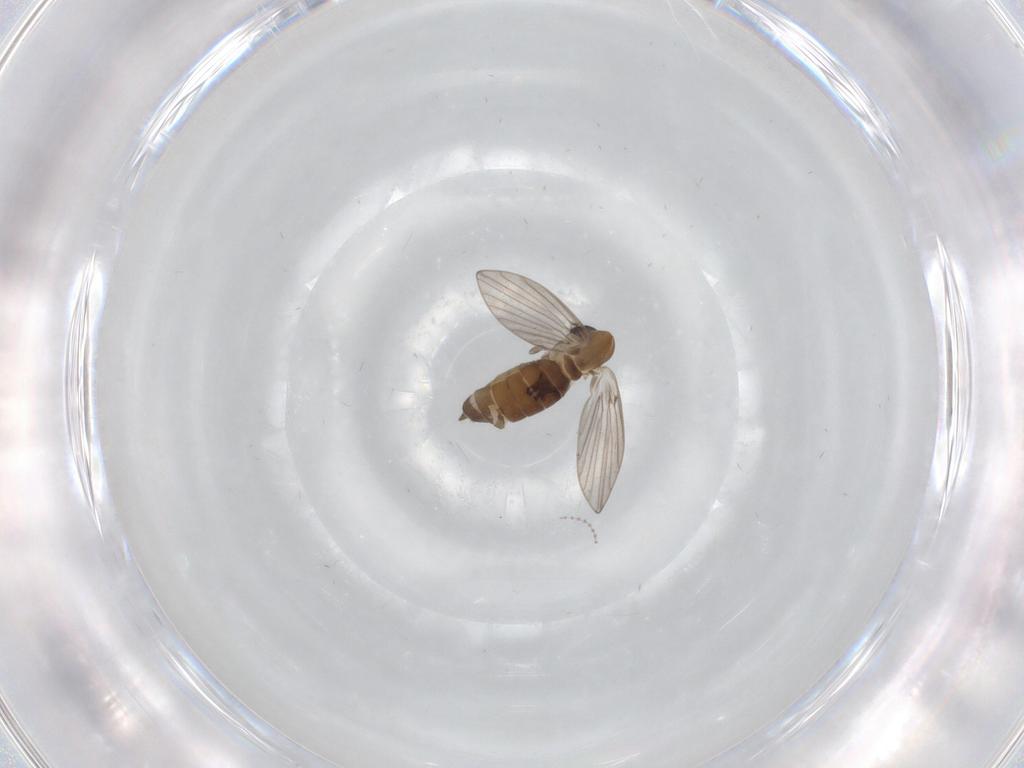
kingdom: Animalia
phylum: Arthropoda
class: Insecta
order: Diptera
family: Psychodidae
